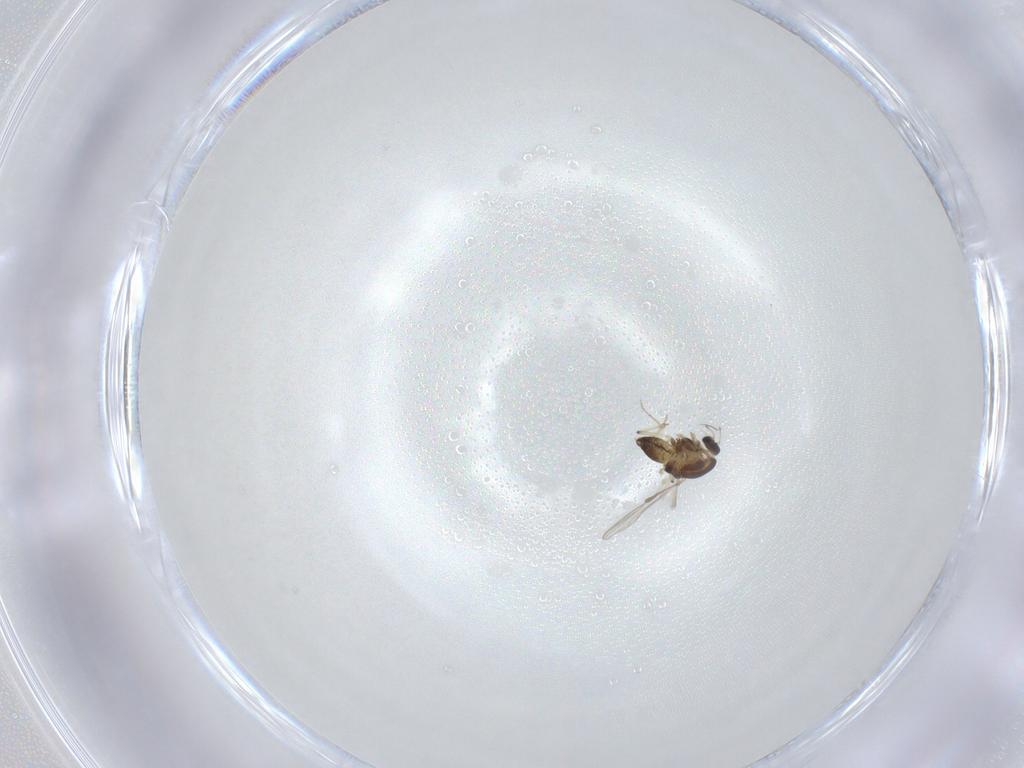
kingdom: Animalia
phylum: Arthropoda
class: Insecta
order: Diptera
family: Chironomidae
